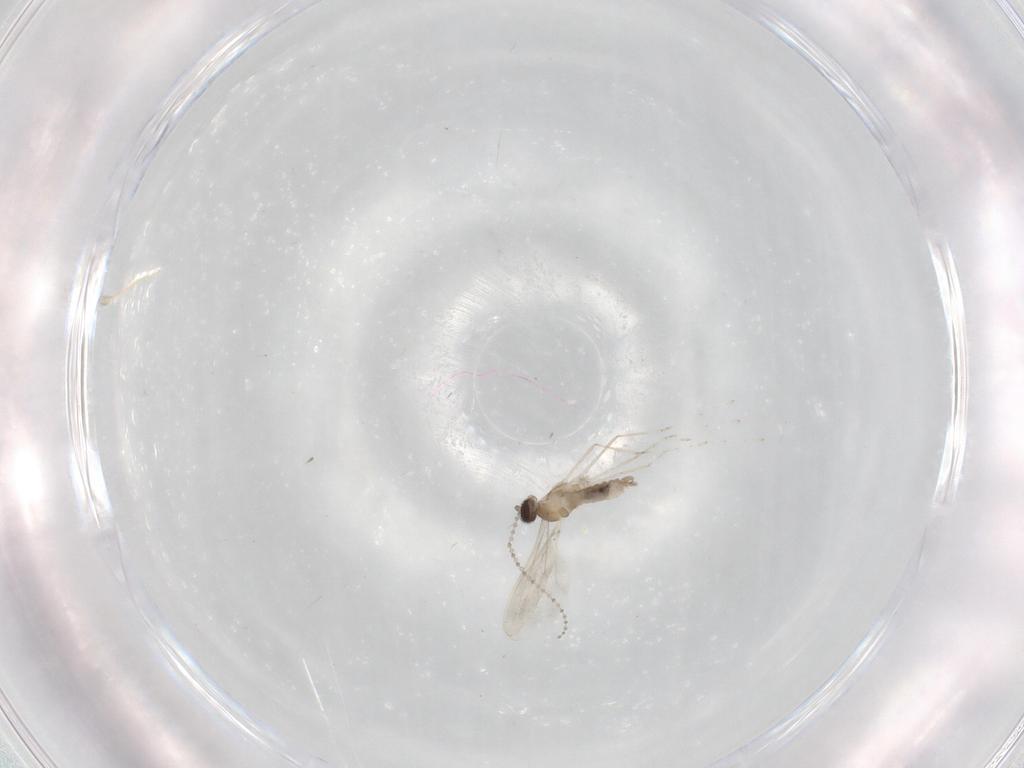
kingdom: Animalia
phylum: Arthropoda
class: Insecta
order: Diptera
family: Cecidomyiidae
